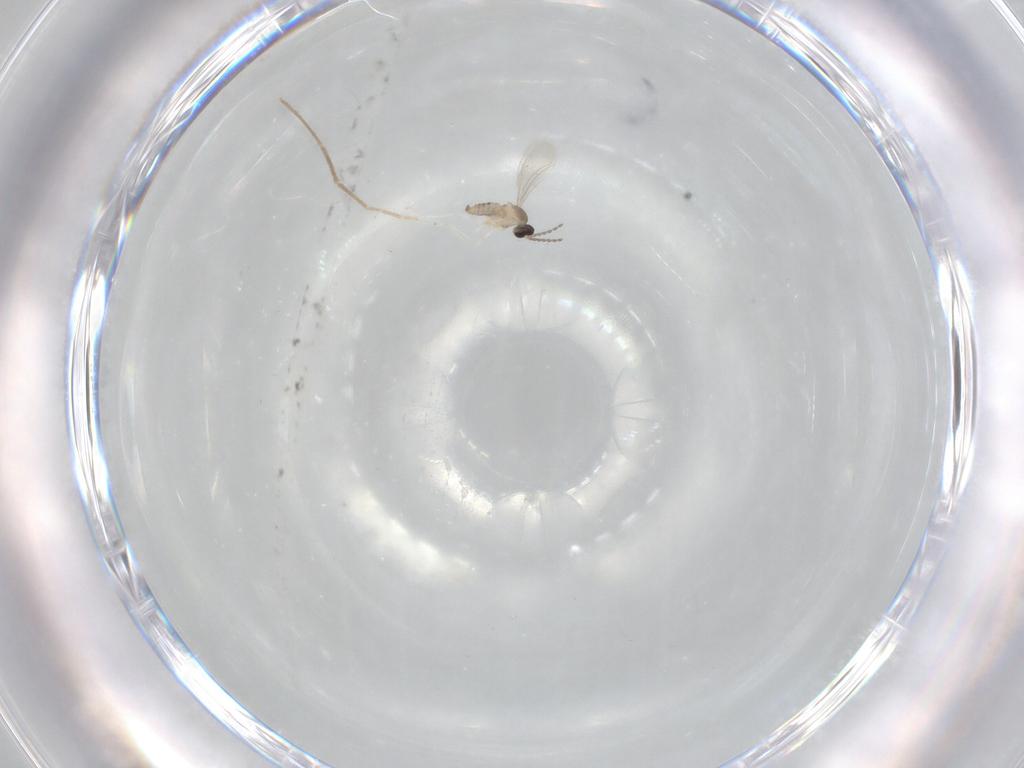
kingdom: Animalia
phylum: Arthropoda
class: Insecta
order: Diptera
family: Cecidomyiidae
